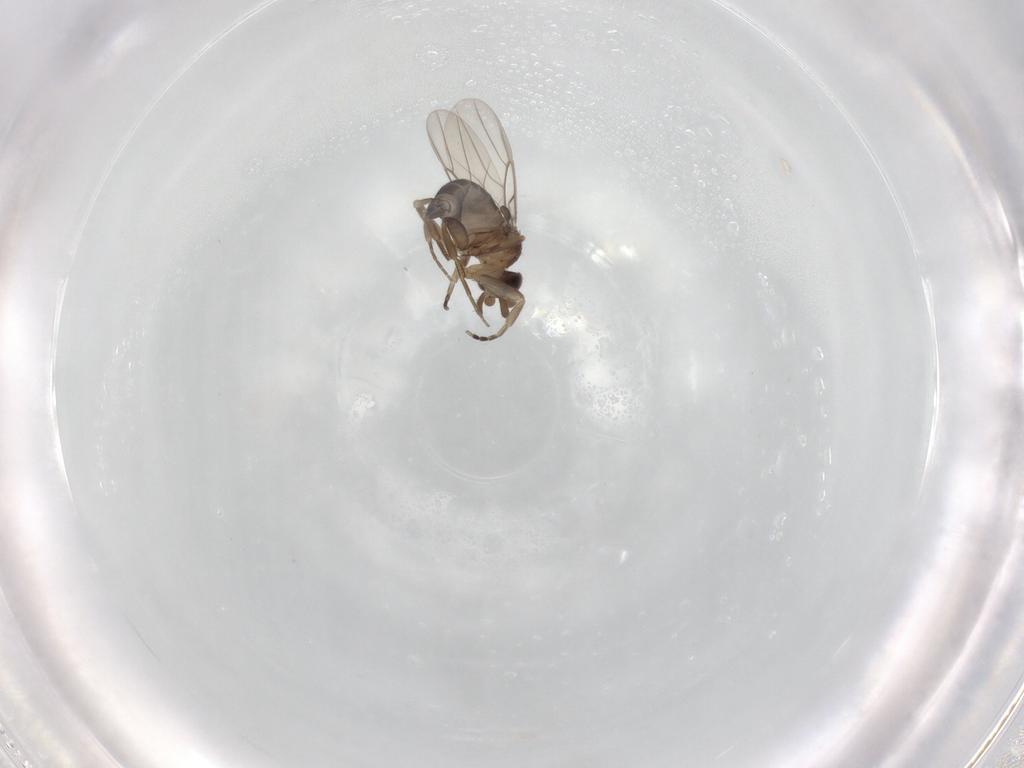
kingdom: Animalia
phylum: Arthropoda
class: Insecta
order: Diptera
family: Phoridae
